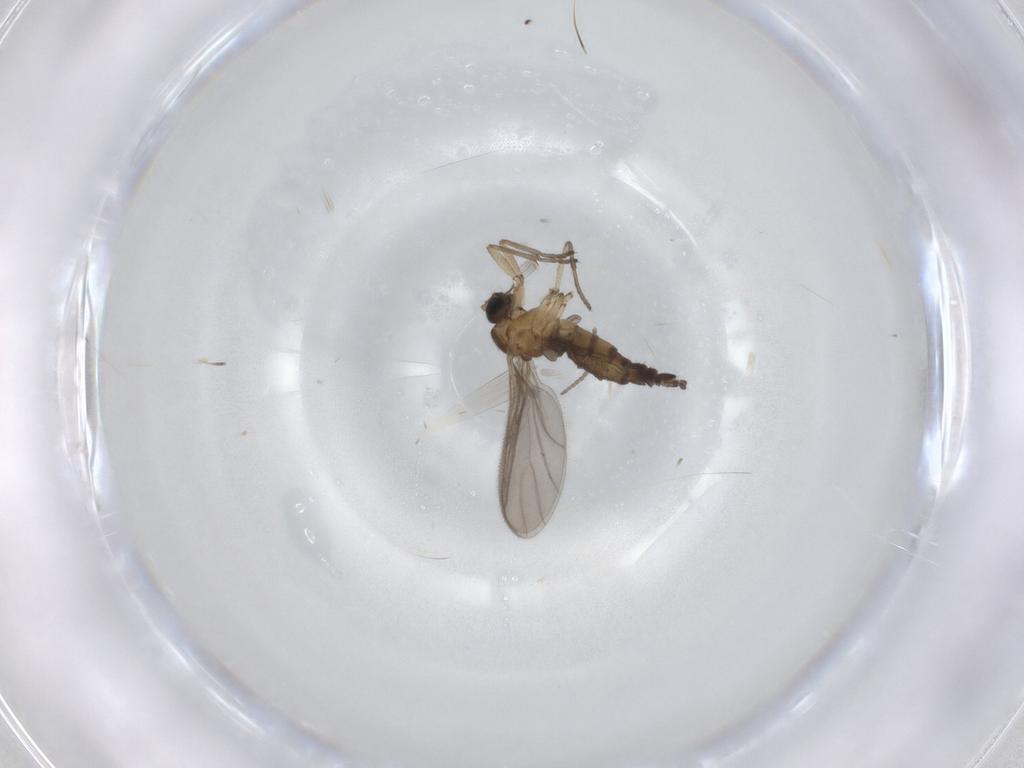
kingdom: Animalia
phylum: Arthropoda
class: Insecta
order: Diptera
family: Sciaridae
